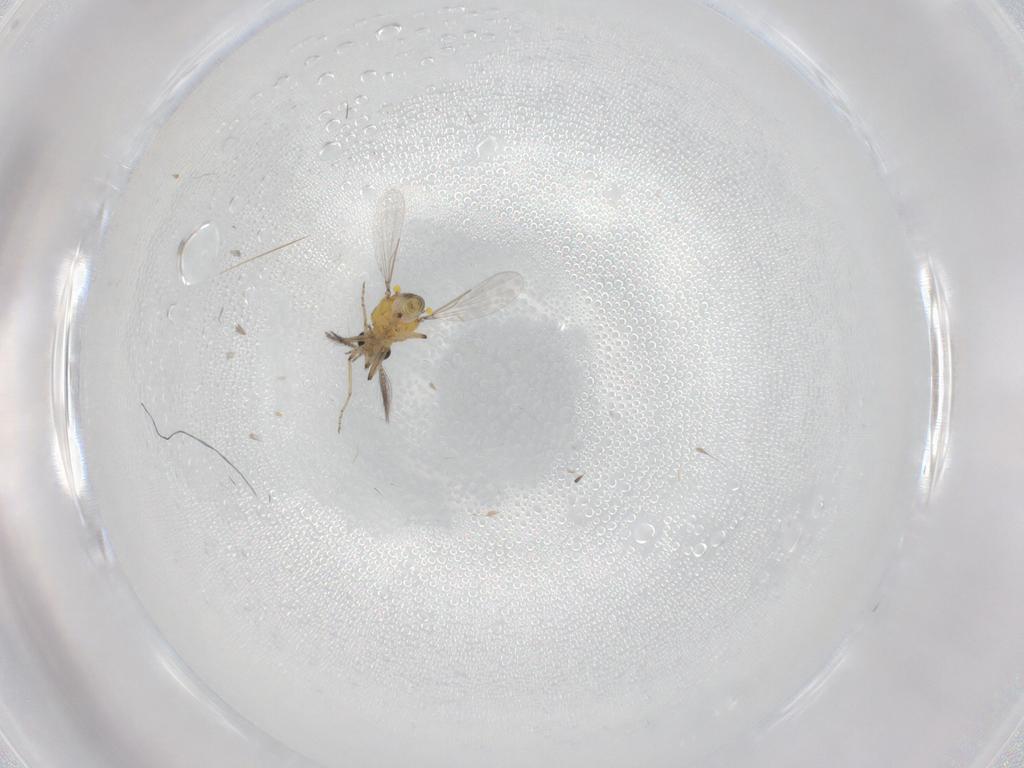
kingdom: Animalia
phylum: Arthropoda
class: Insecta
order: Diptera
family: Ceratopogonidae
